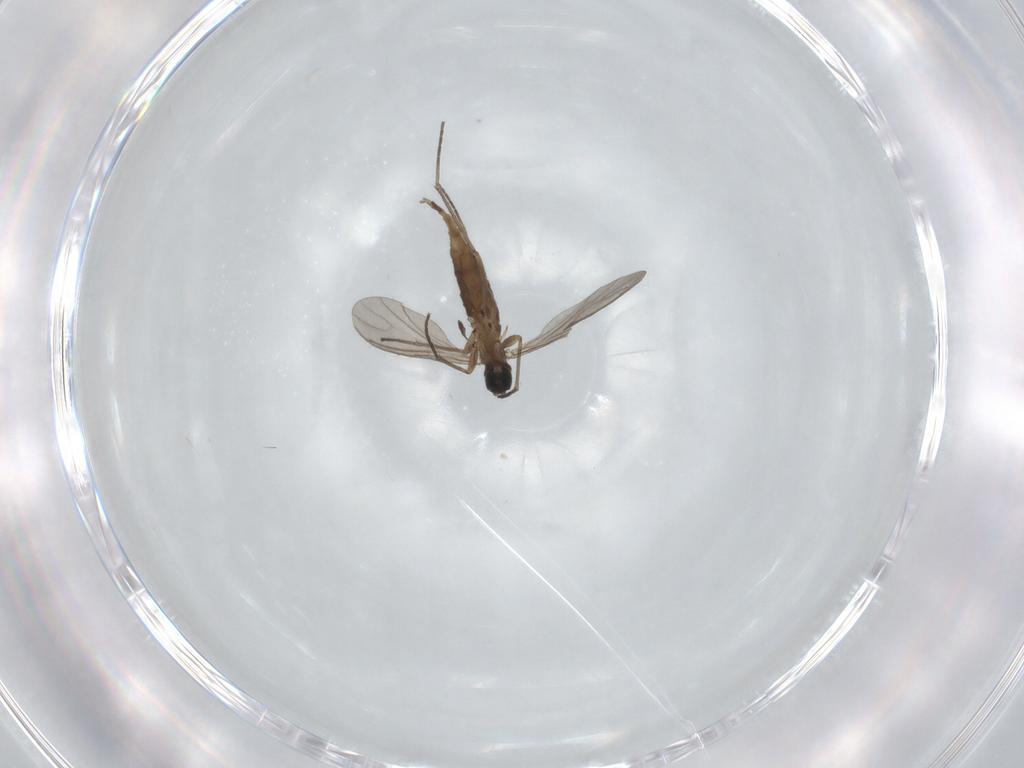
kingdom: Animalia
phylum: Arthropoda
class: Insecta
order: Diptera
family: Sciaridae
